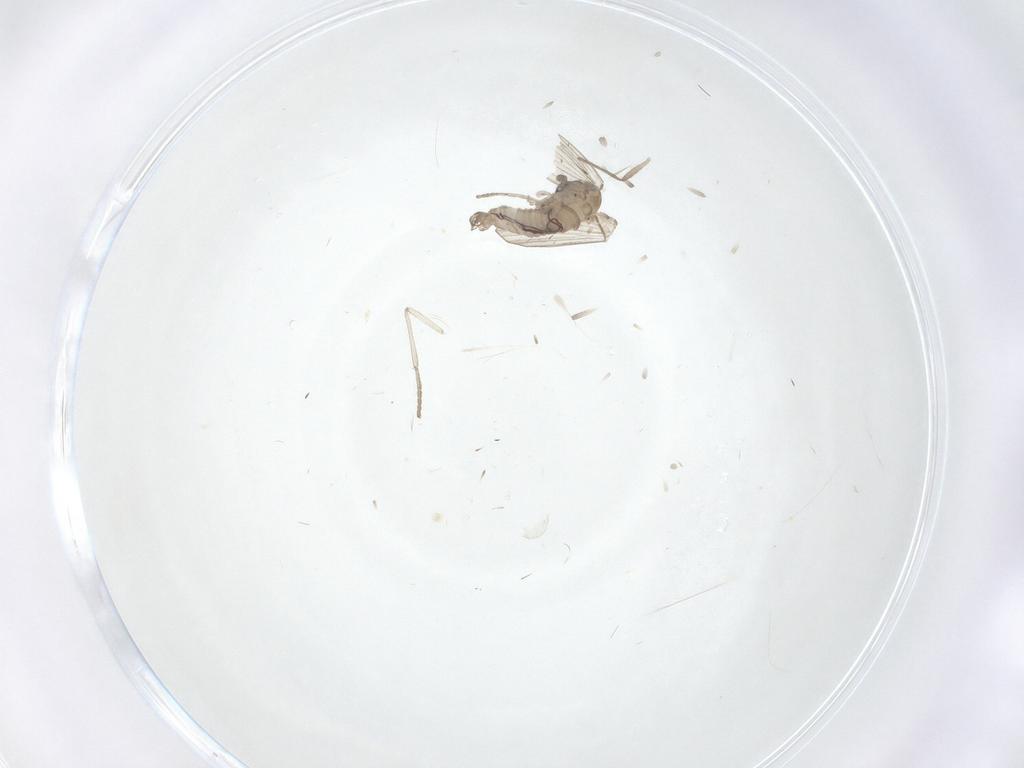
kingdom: Animalia
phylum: Arthropoda
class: Insecta
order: Diptera
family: Psychodidae
